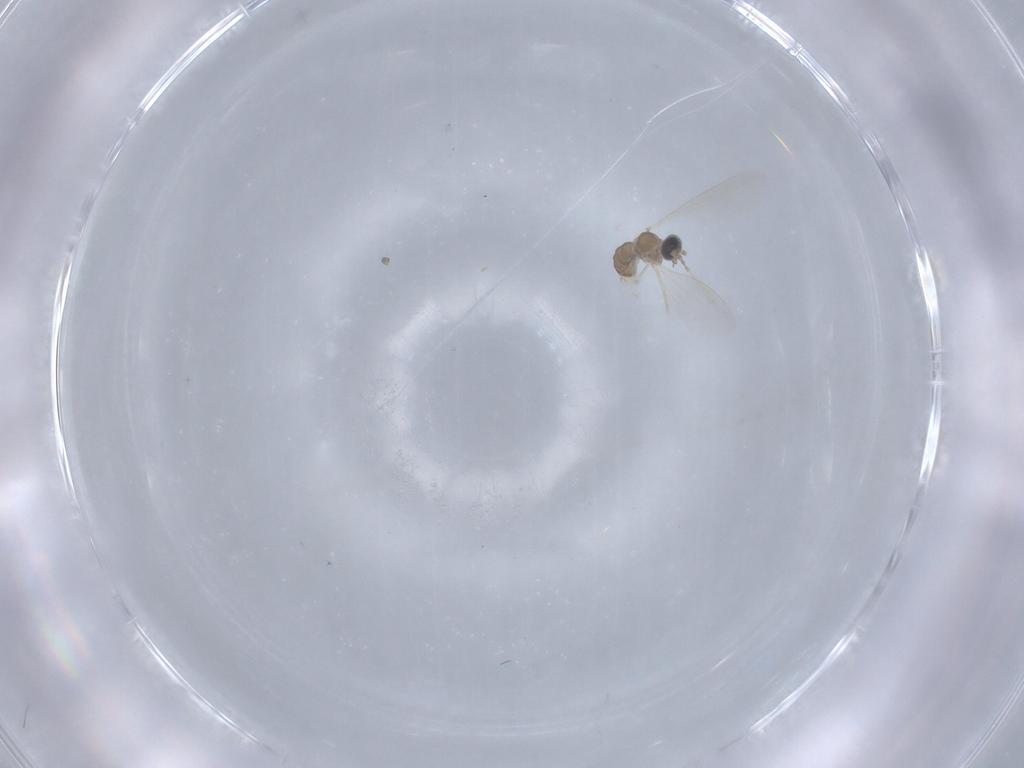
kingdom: Animalia
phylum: Arthropoda
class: Insecta
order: Diptera
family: Cecidomyiidae
